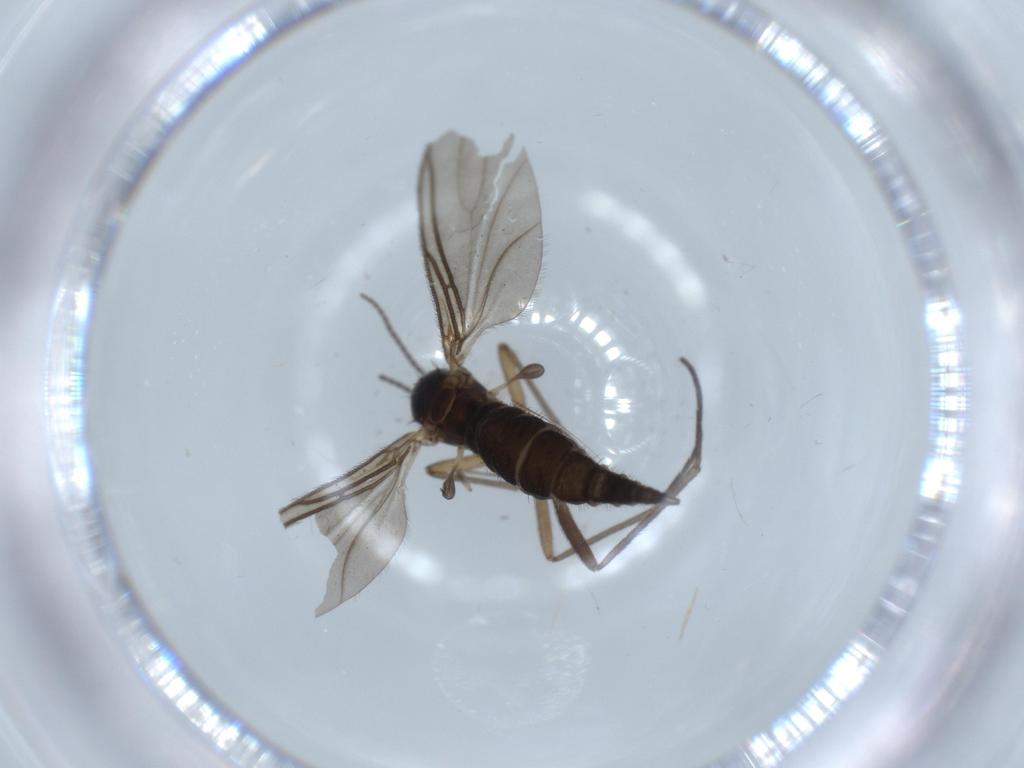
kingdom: Animalia
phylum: Arthropoda
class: Insecta
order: Diptera
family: Sciaridae
